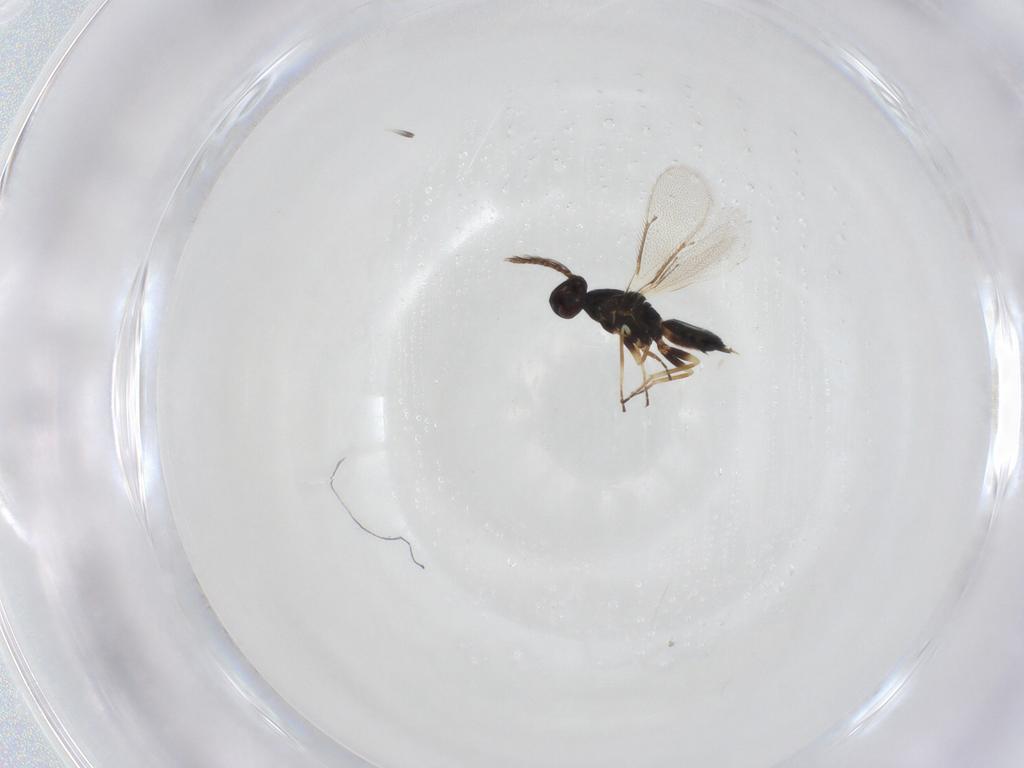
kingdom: Animalia
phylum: Arthropoda
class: Insecta
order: Hymenoptera
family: Eulophidae
